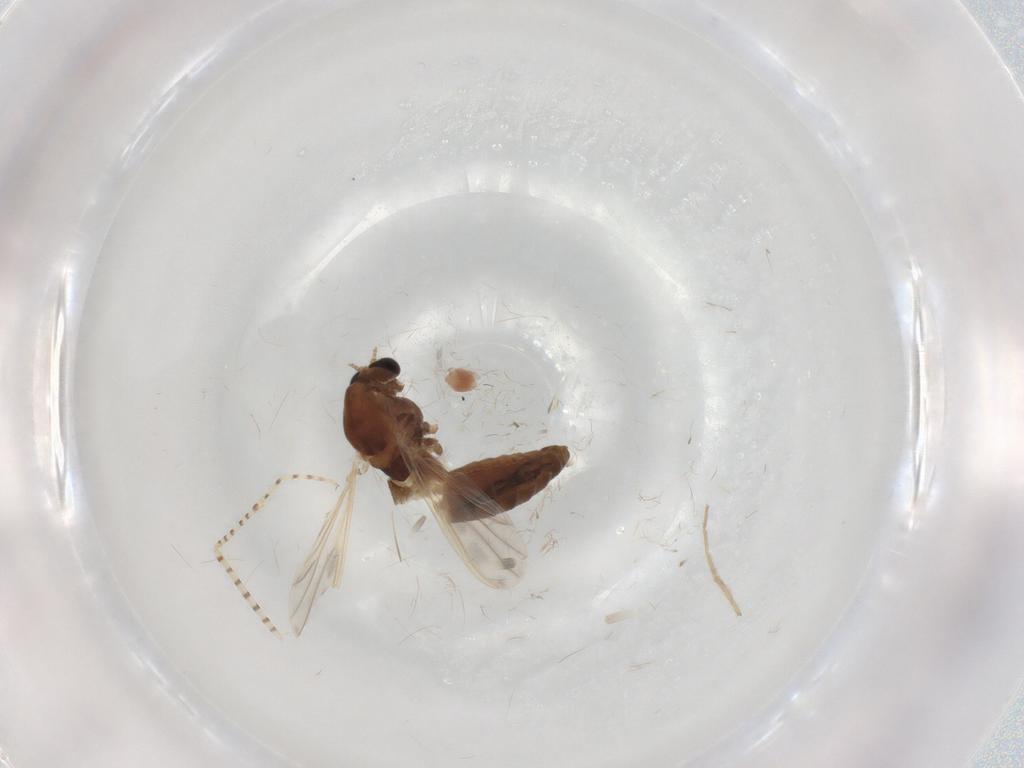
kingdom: Animalia
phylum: Arthropoda
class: Insecta
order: Diptera
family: Chironomidae
